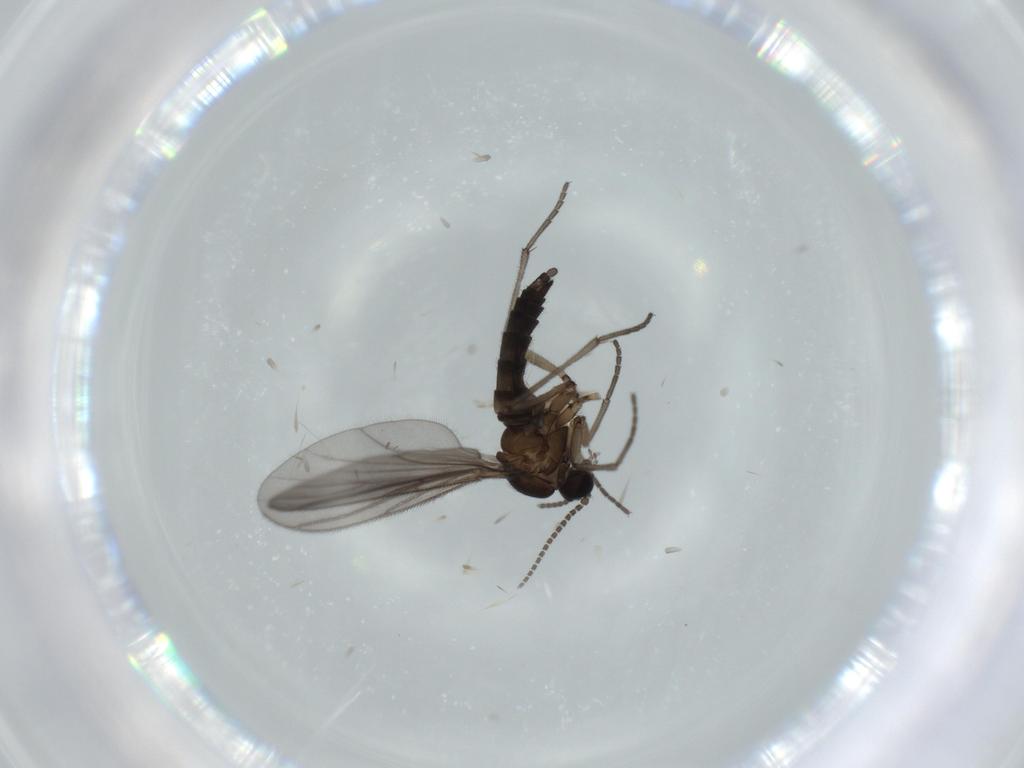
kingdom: Animalia
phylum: Arthropoda
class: Insecta
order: Diptera
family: Sciaridae
